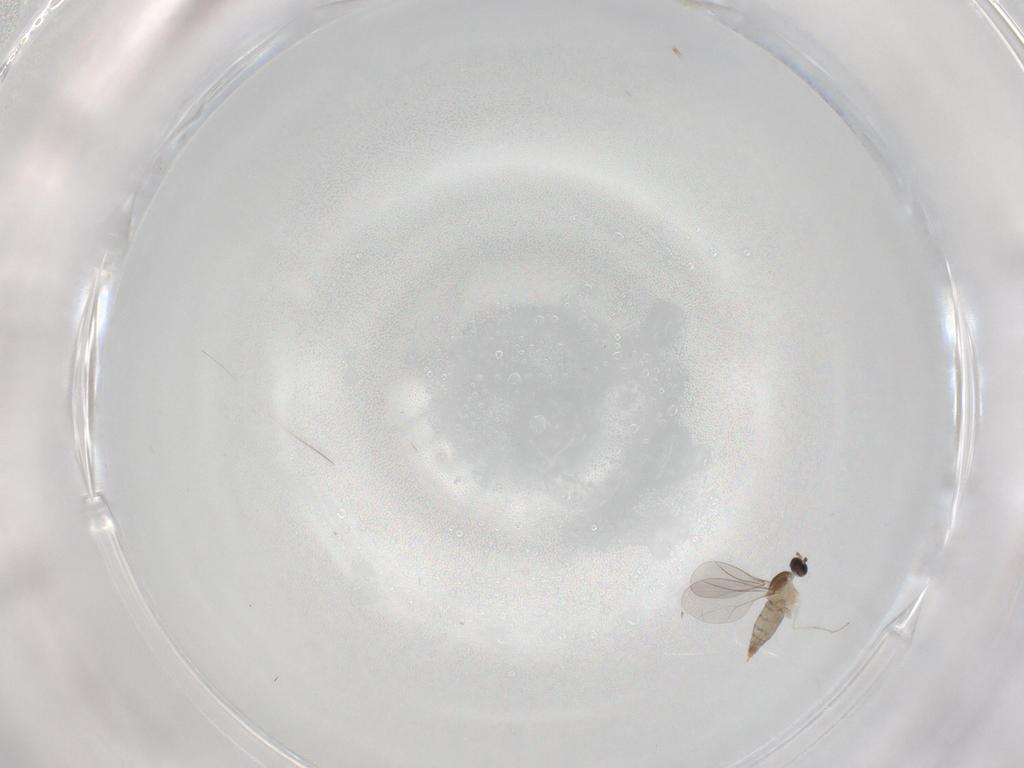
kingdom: Animalia
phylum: Arthropoda
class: Insecta
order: Diptera
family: Cecidomyiidae
